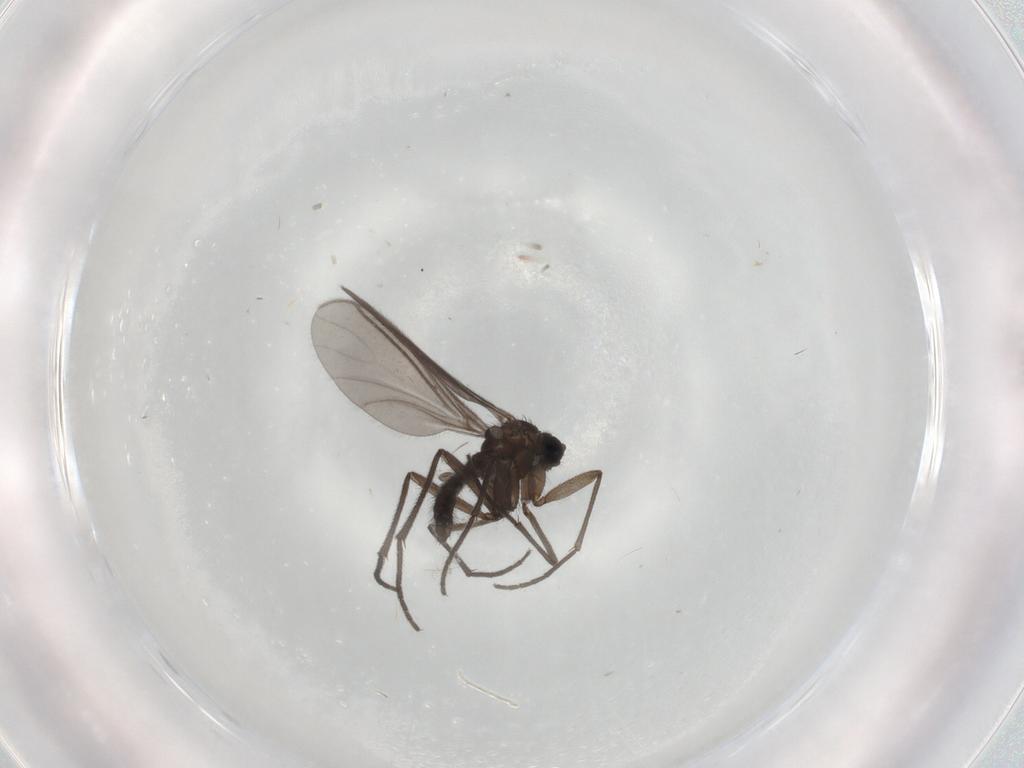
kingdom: Animalia
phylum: Arthropoda
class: Insecta
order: Diptera
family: Sciaridae
